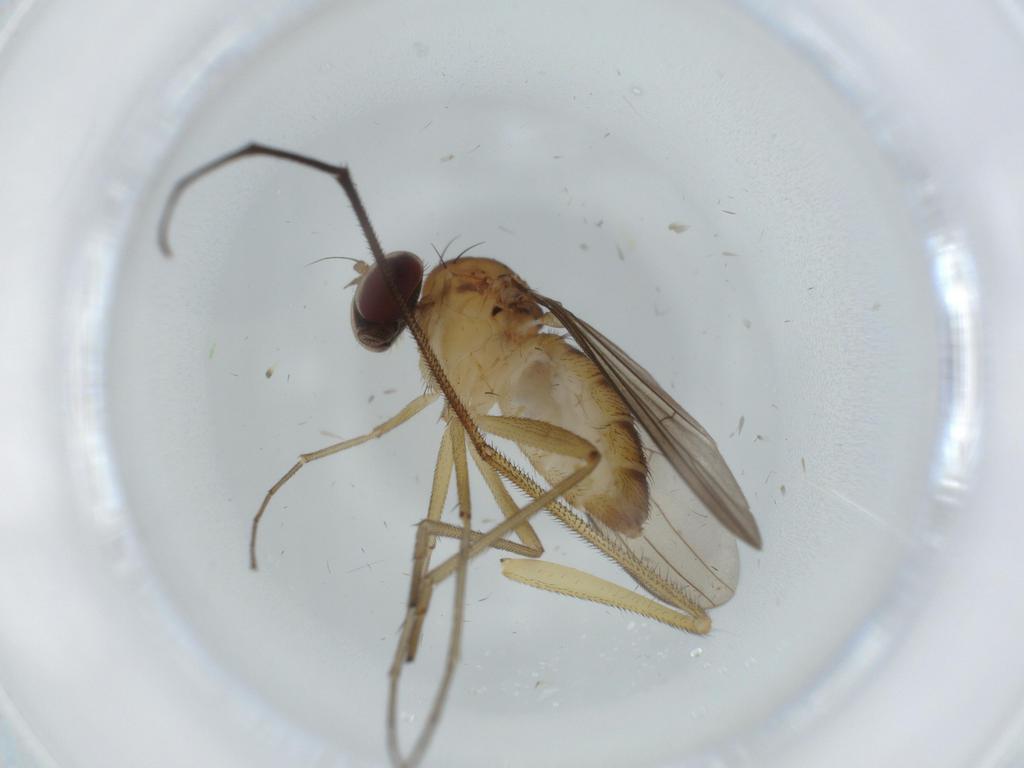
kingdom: Animalia
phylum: Arthropoda
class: Insecta
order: Diptera
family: Dolichopodidae
